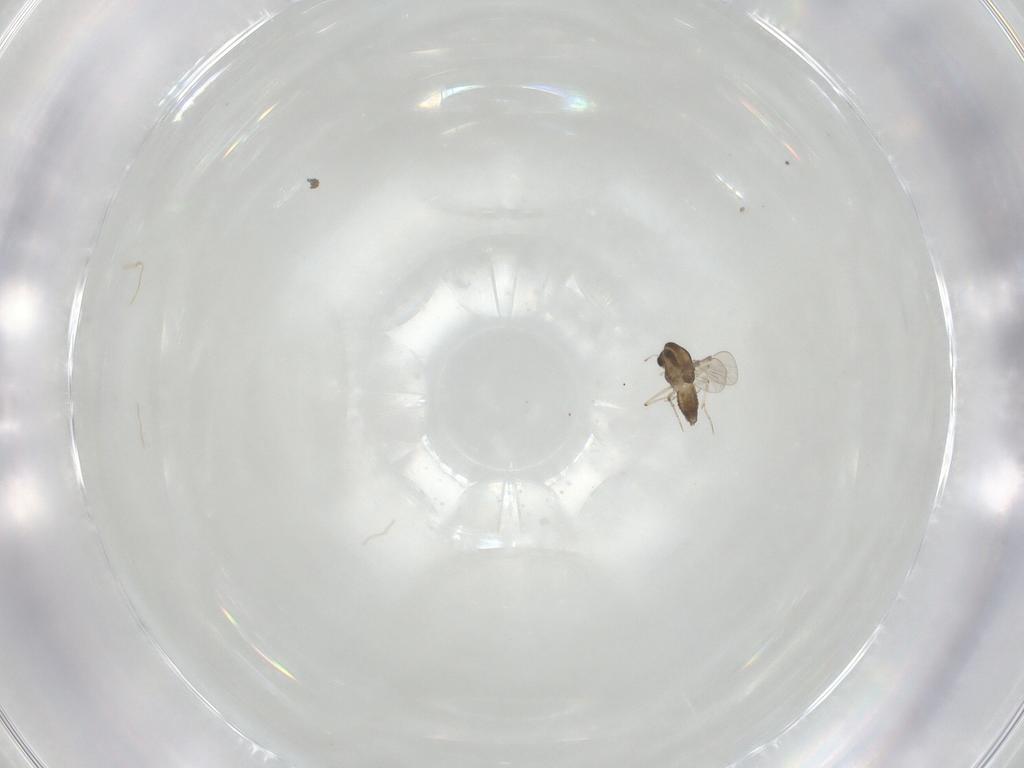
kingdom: Animalia
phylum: Arthropoda
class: Insecta
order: Diptera
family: Chironomidae
